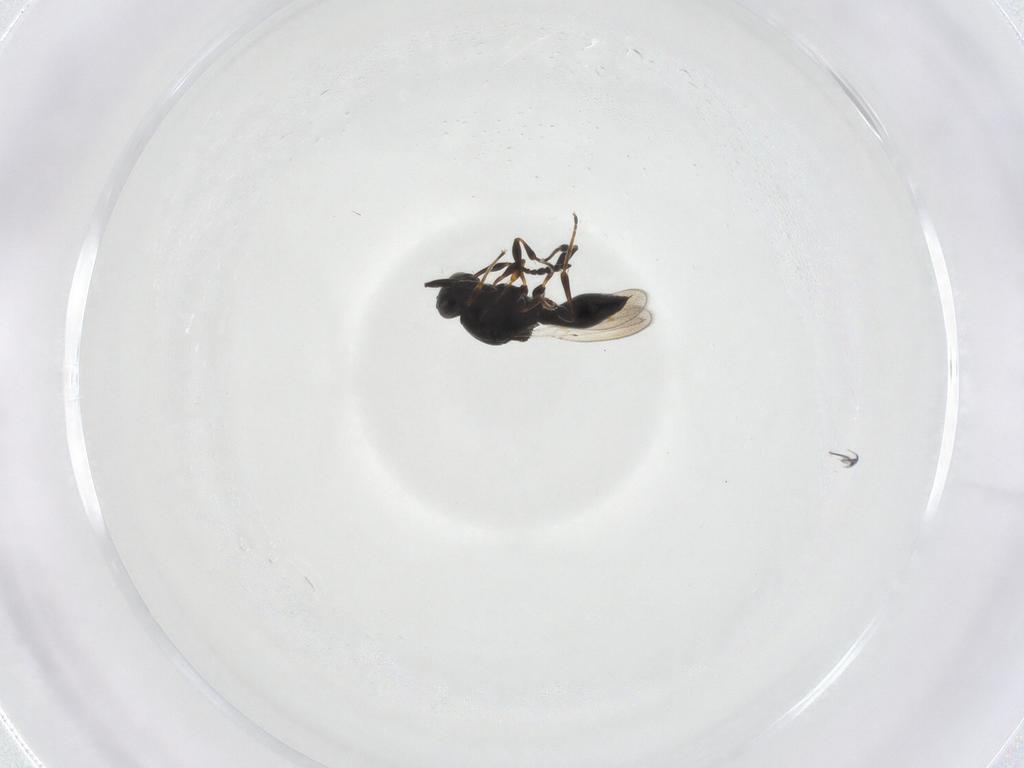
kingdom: Animalia
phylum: Arthropoda
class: Insecta
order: Hymenoptera
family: Platygastridae
